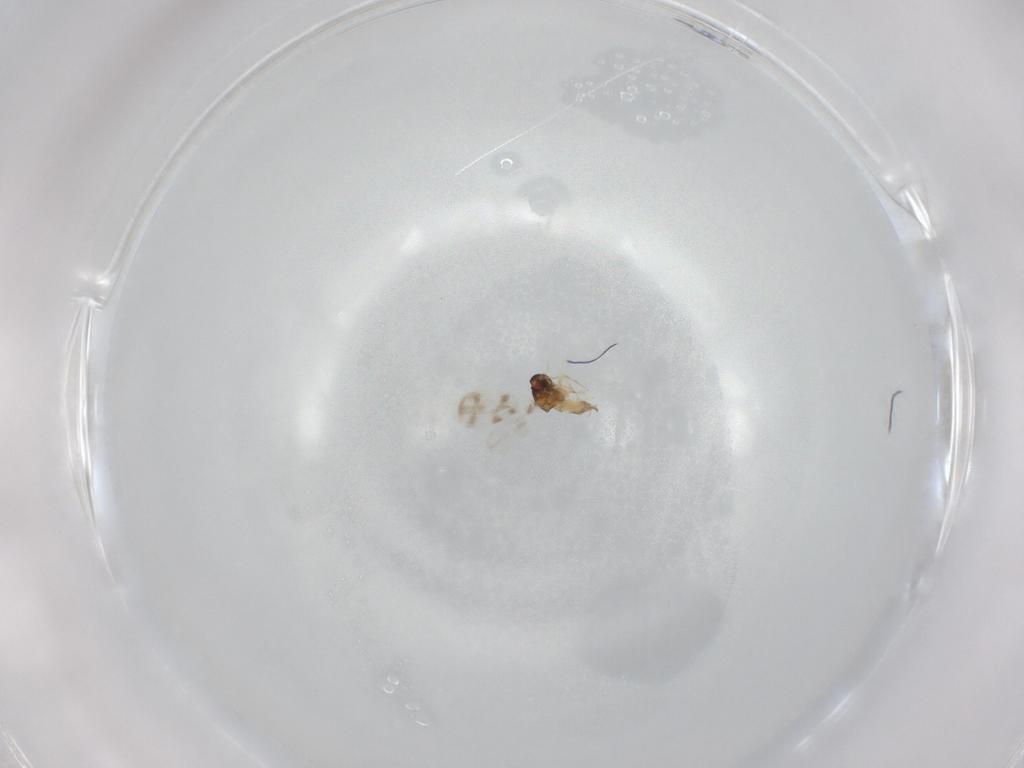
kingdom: Animalia
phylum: Arthropoda
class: Insecta
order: Hemiptera
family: Aleyrodidae
